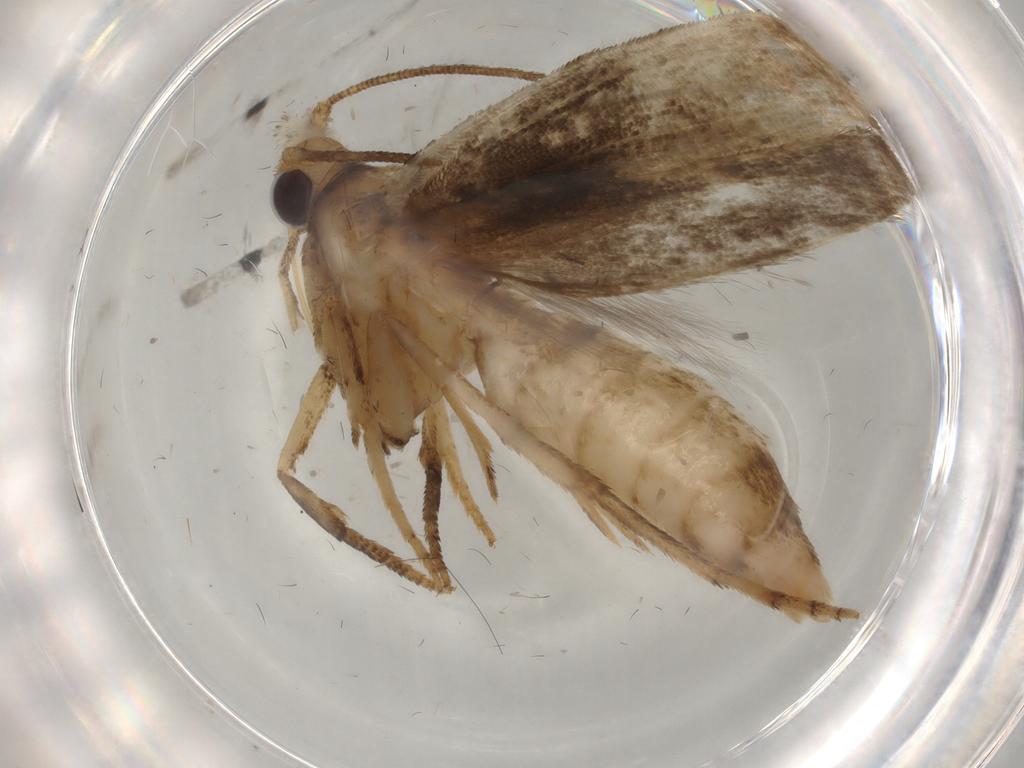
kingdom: Animalia
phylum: Arthropoda
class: Insecta
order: Lepidoptera
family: Yponomeutidae
